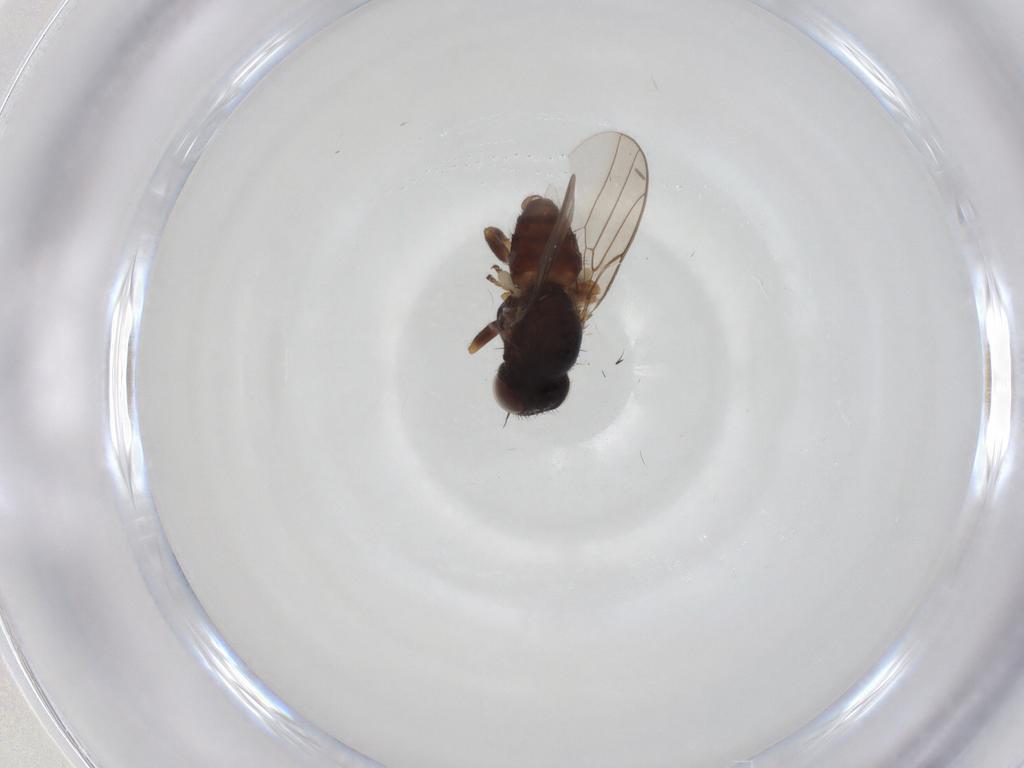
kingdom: Animalia
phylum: Arthropoda
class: Insecta
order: Diptera
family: Chloropidae
